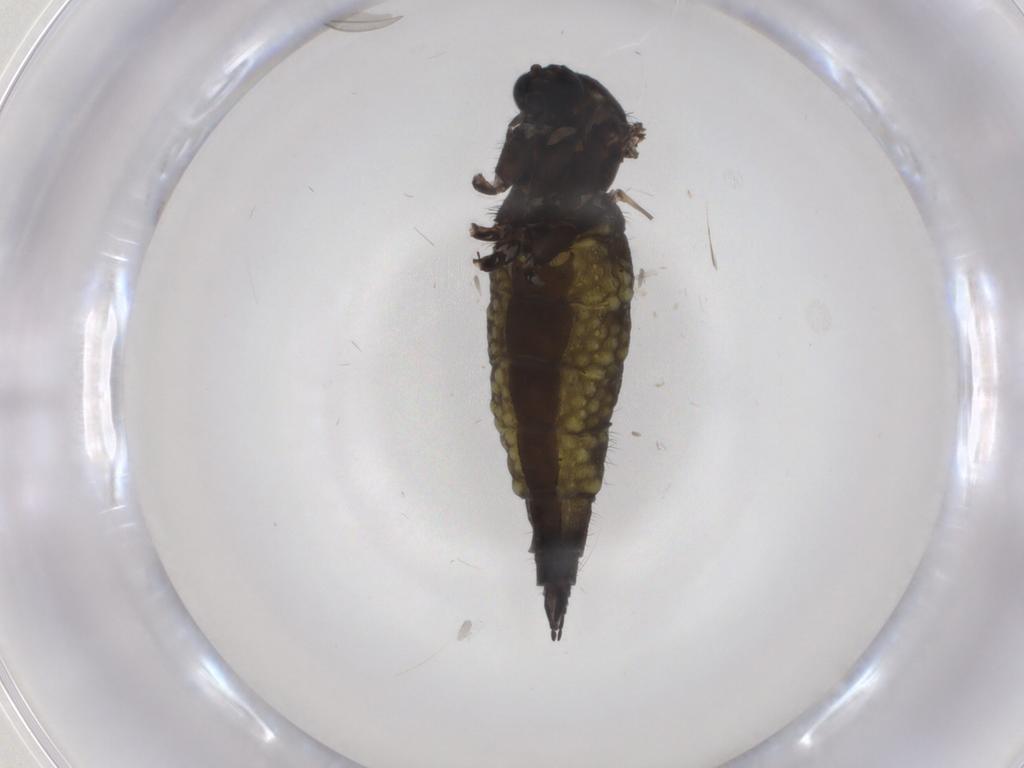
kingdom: Animalia
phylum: Arthropoda
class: Insecta
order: Diptera
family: Sciaridae
